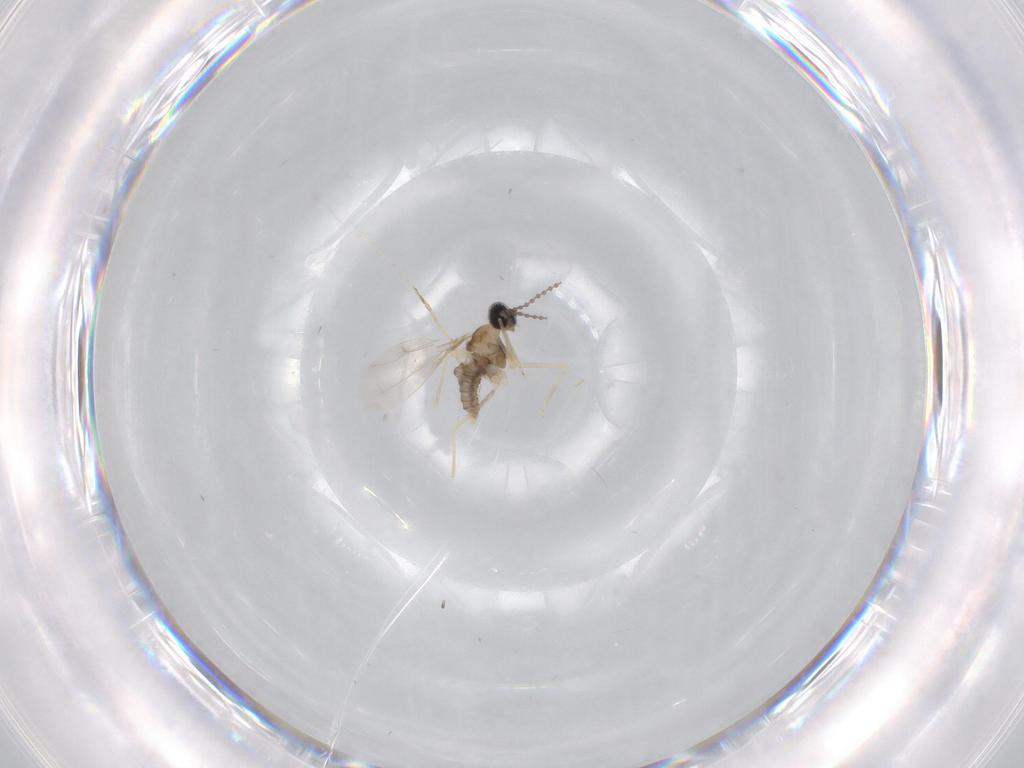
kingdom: Animalia
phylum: Arthropoda
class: Insecta
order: Diptera
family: Cecidomyiidae
